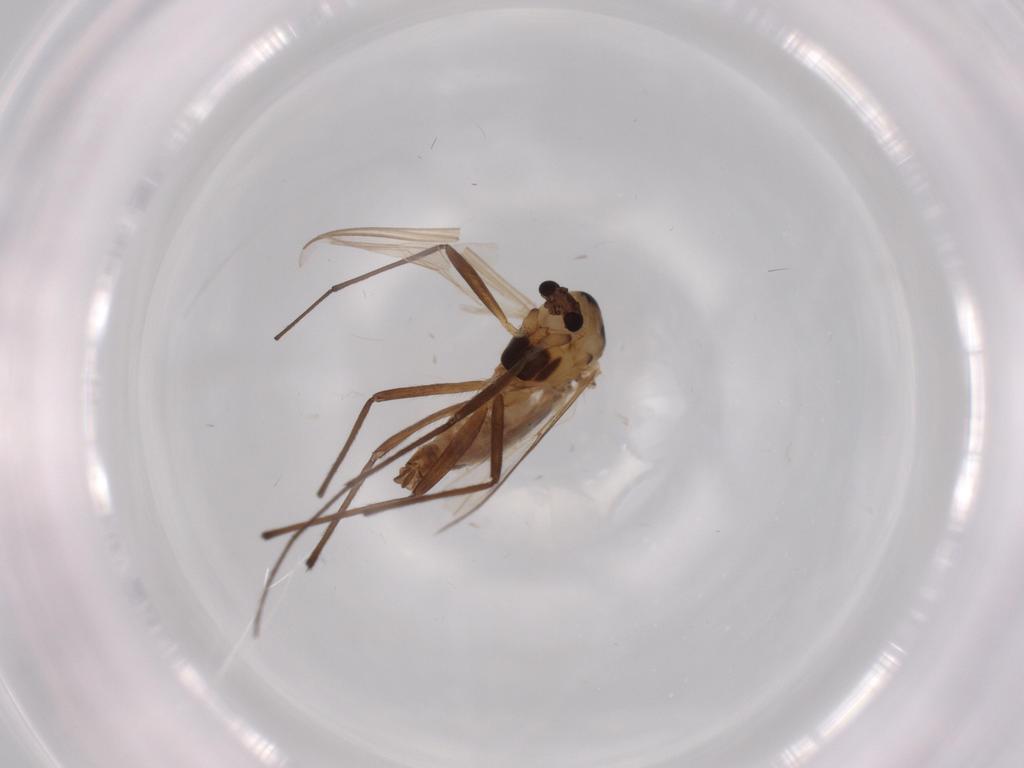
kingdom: Animalia
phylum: Arthropoda
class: Insecta
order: Diptera
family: Chironomidae
